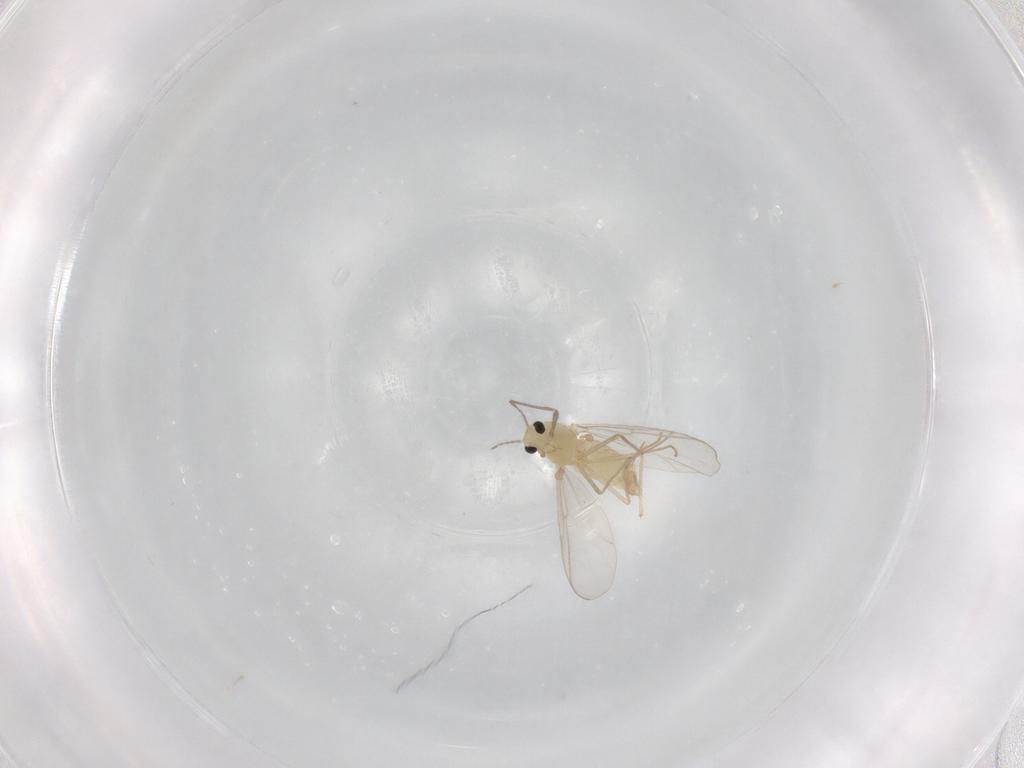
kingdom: Animalia
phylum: Arthropoda
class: Insecta
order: Diptera
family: Chironomidae
